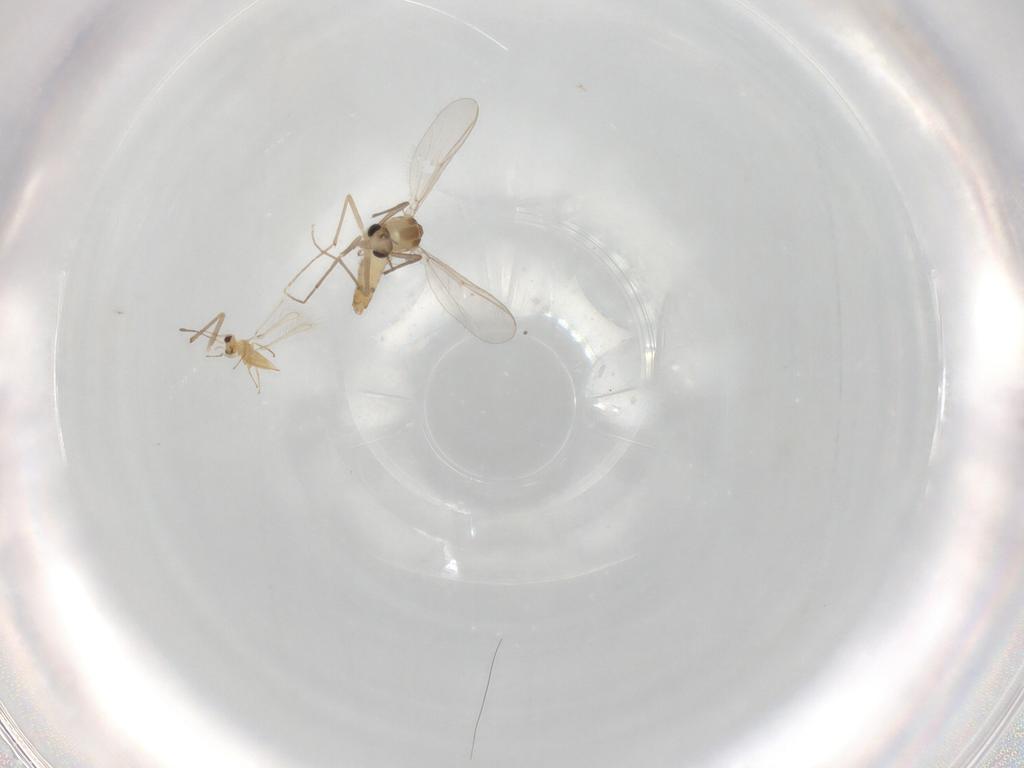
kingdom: Animalia
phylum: Arthropoda
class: Insecta
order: Diptera
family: Chironomidae
